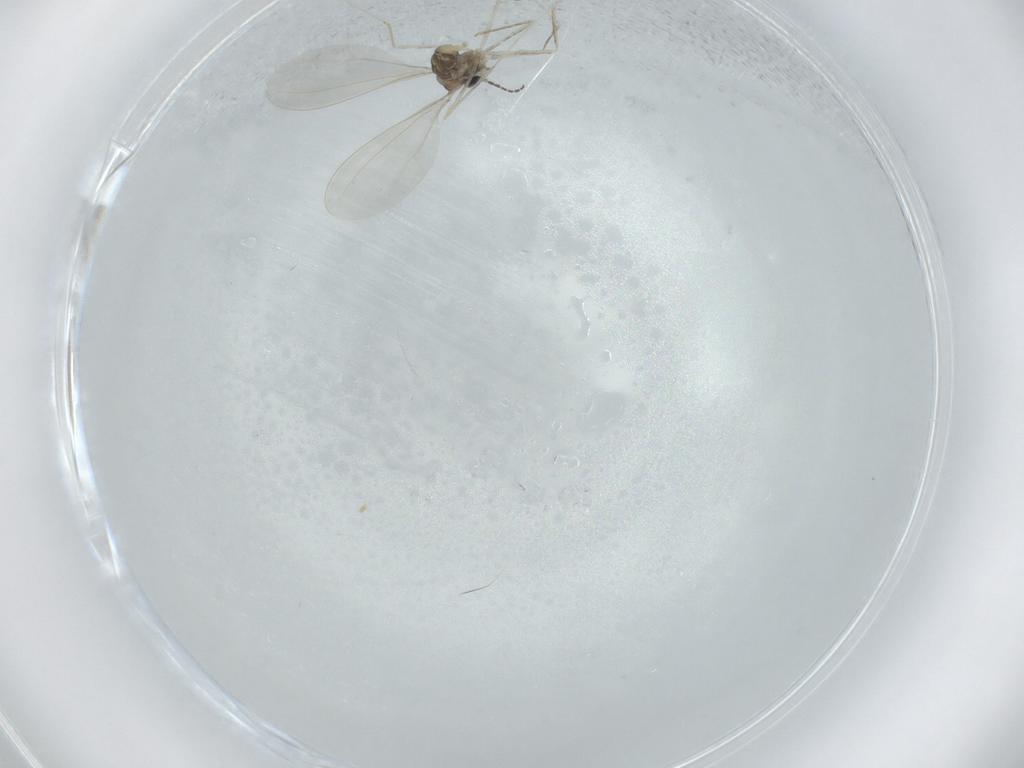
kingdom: Animalia
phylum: Arthropoda
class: Insecta
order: Diptera
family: Cecidomyiidae
